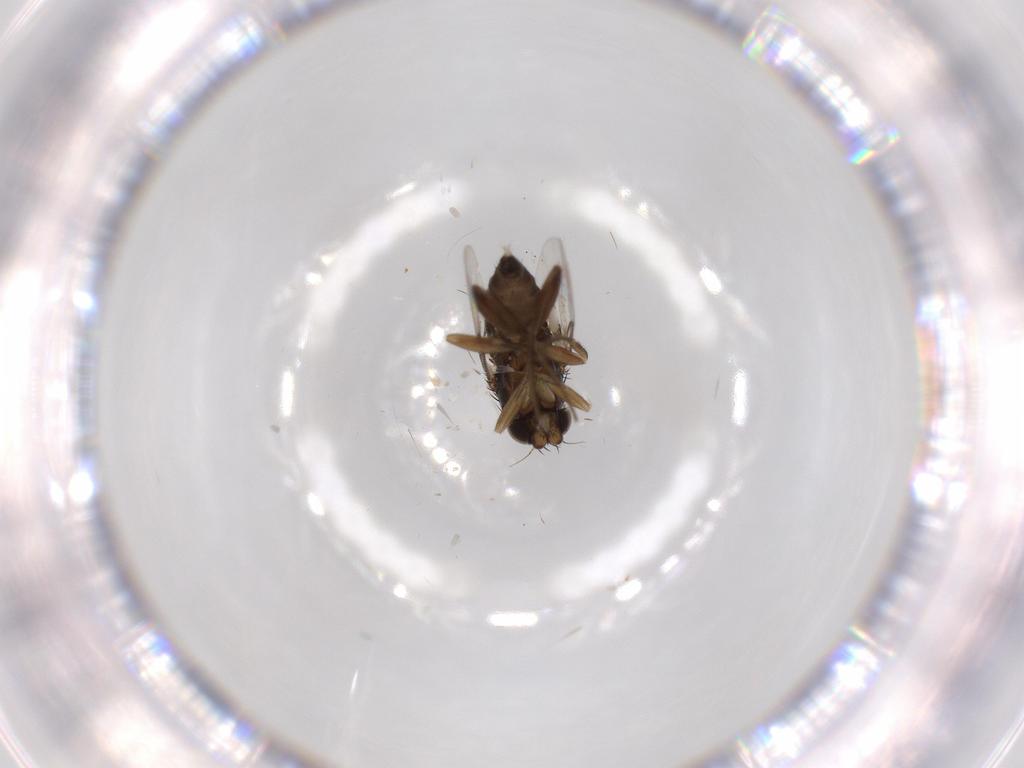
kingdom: Animalia
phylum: Arthropoda
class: Insecta
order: Diptera
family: Phoridae
